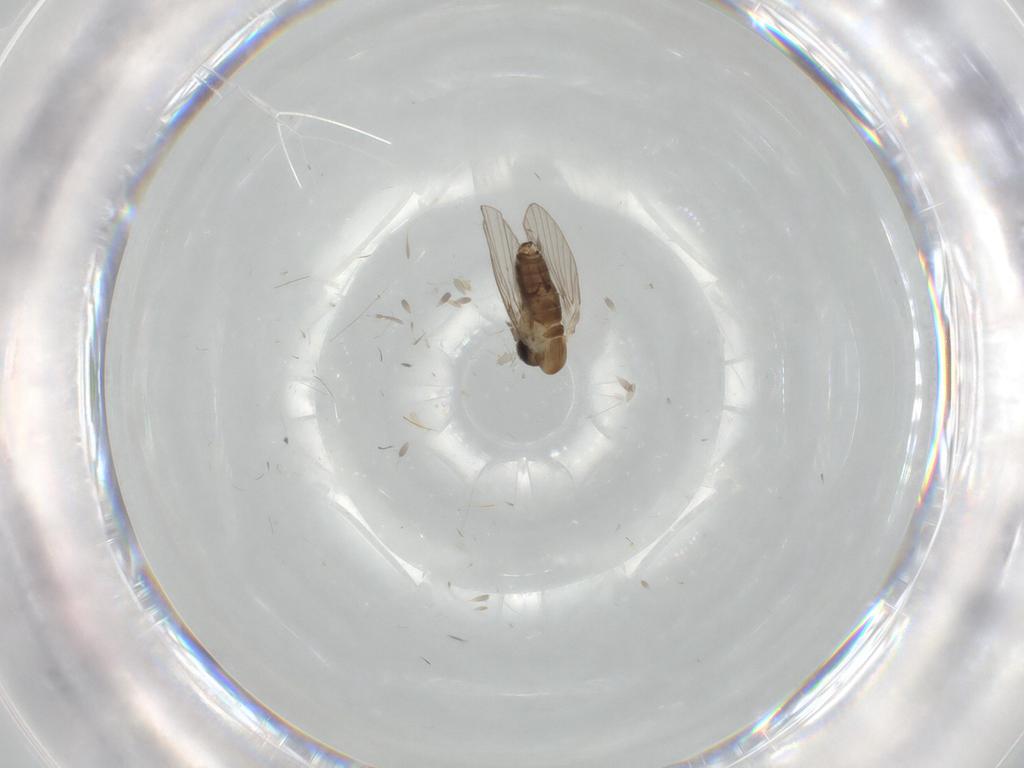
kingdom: Animalia
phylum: Arthropoda
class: Insecta
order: Diptera
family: Psychodidae
